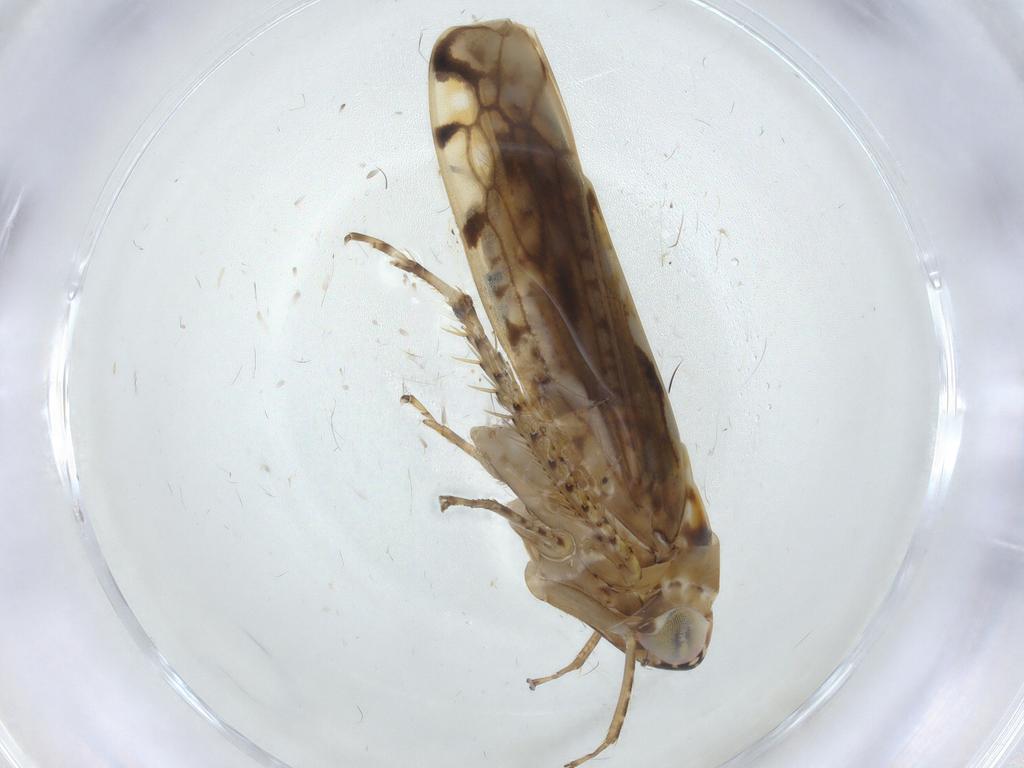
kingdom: Animalia
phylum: Arthropoda
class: Insecta
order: Hemiptera
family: Cicadellidae
